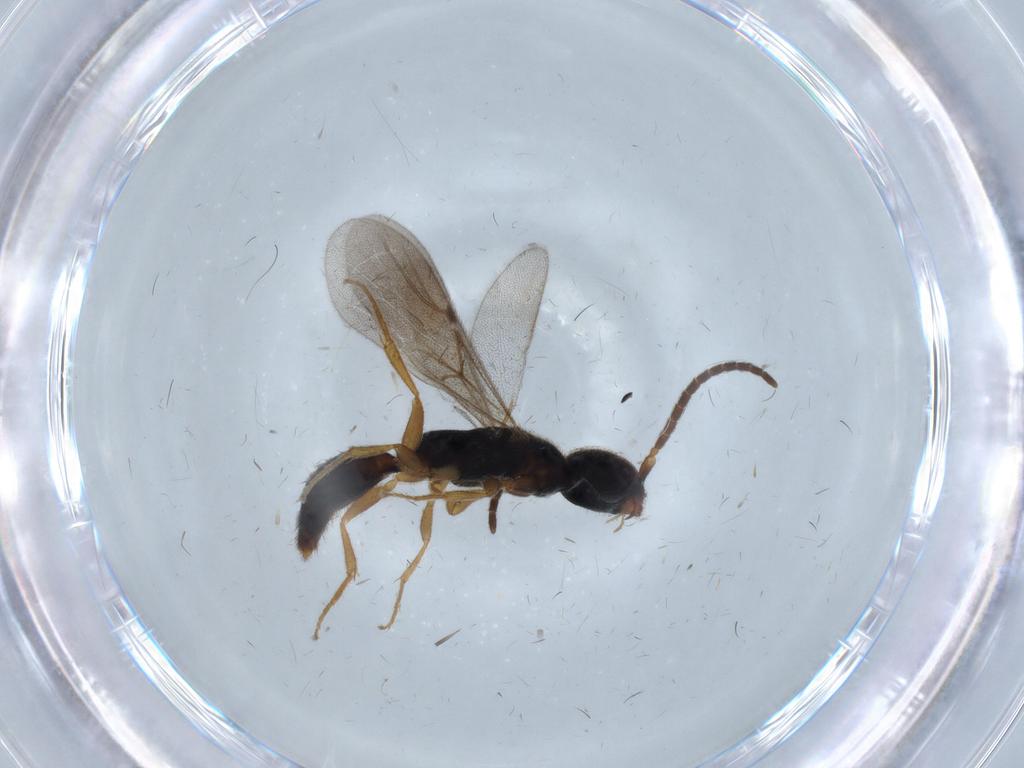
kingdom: Animalia
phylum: Arthropoda
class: Insecta
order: Hymenoptera
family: Bethylidae
